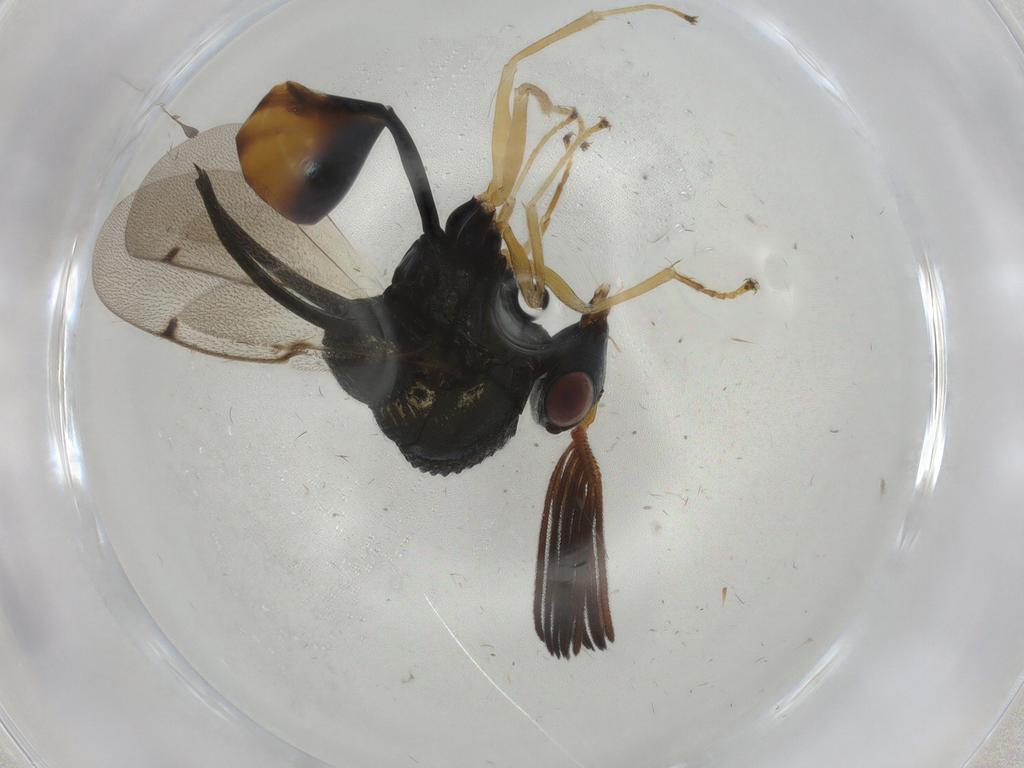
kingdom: Animalia
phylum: Arthropoda
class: Insecta
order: Hymenoptera
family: Formicidae
